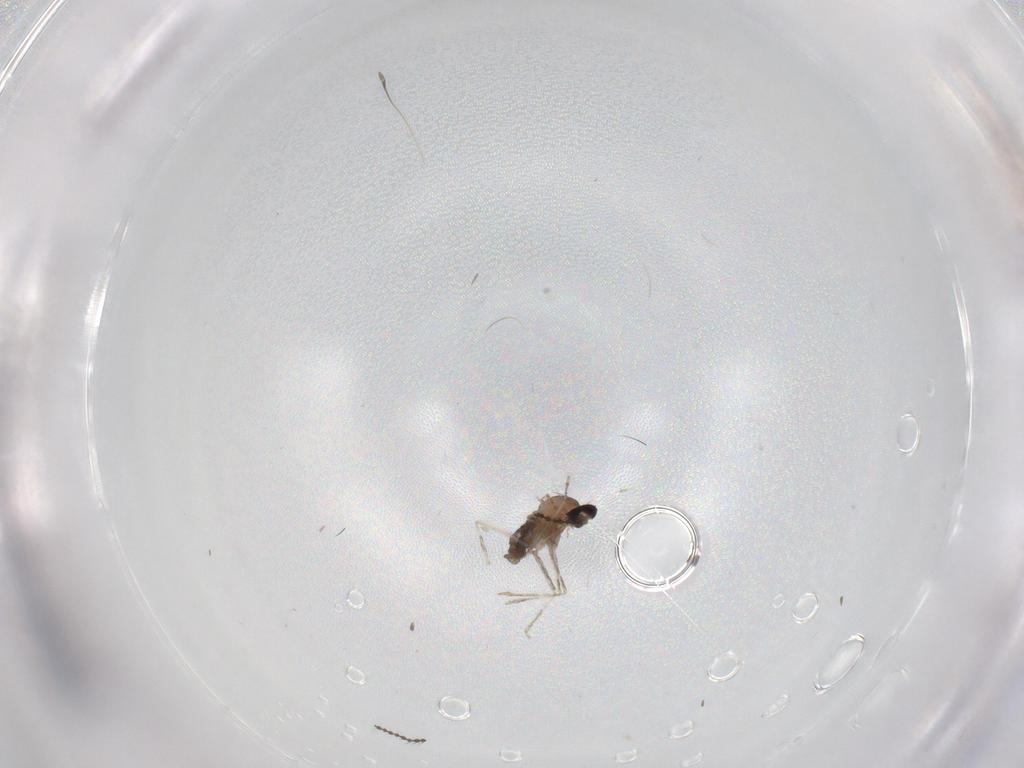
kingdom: Animalia
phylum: Arthropoda
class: Insecta
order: Diptera
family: Cecidomyiidae
